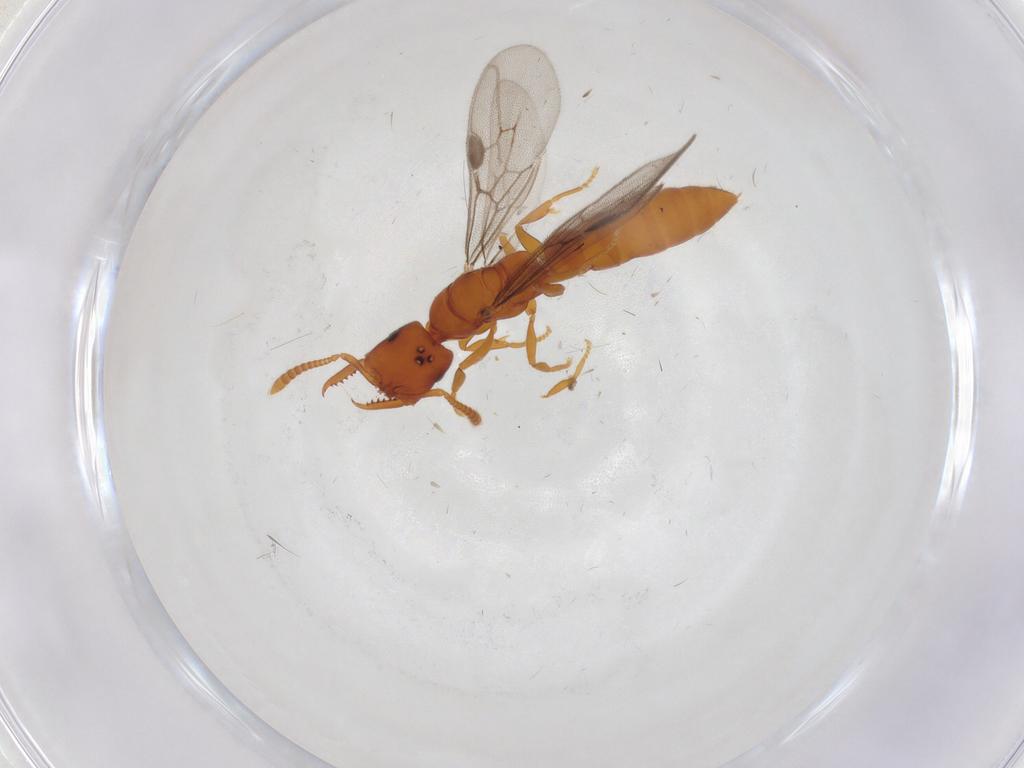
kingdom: Animalia
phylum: Arthropoda
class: Insecta
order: Hymenoptera
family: Formicidae
